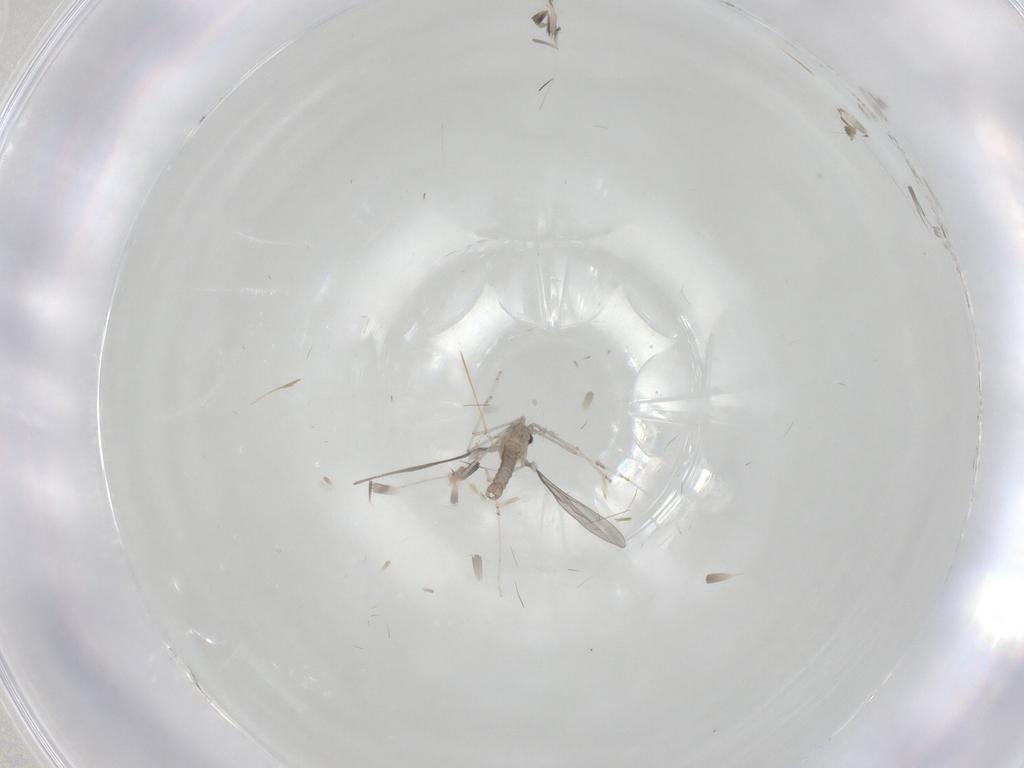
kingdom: Animalia
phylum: Arthropoda
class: Insecta
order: Diptera
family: Cecidomyiidae
